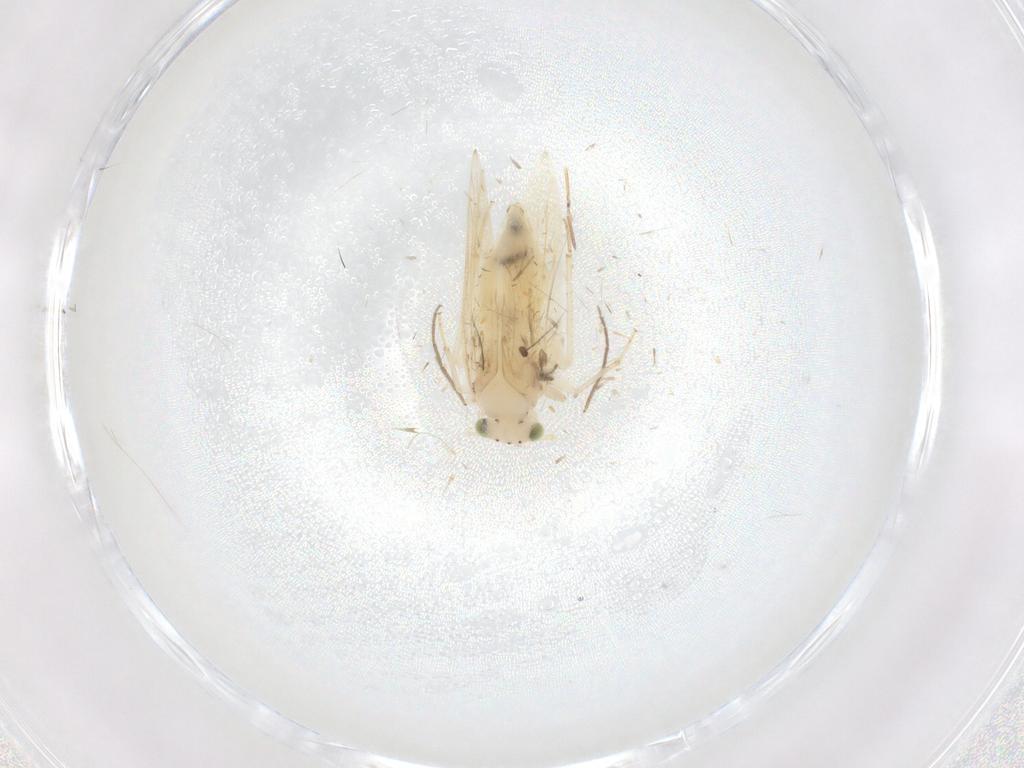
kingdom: Animalia
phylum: Arthropoda
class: Insecta
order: Psocodea
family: Lepidopsocidae
